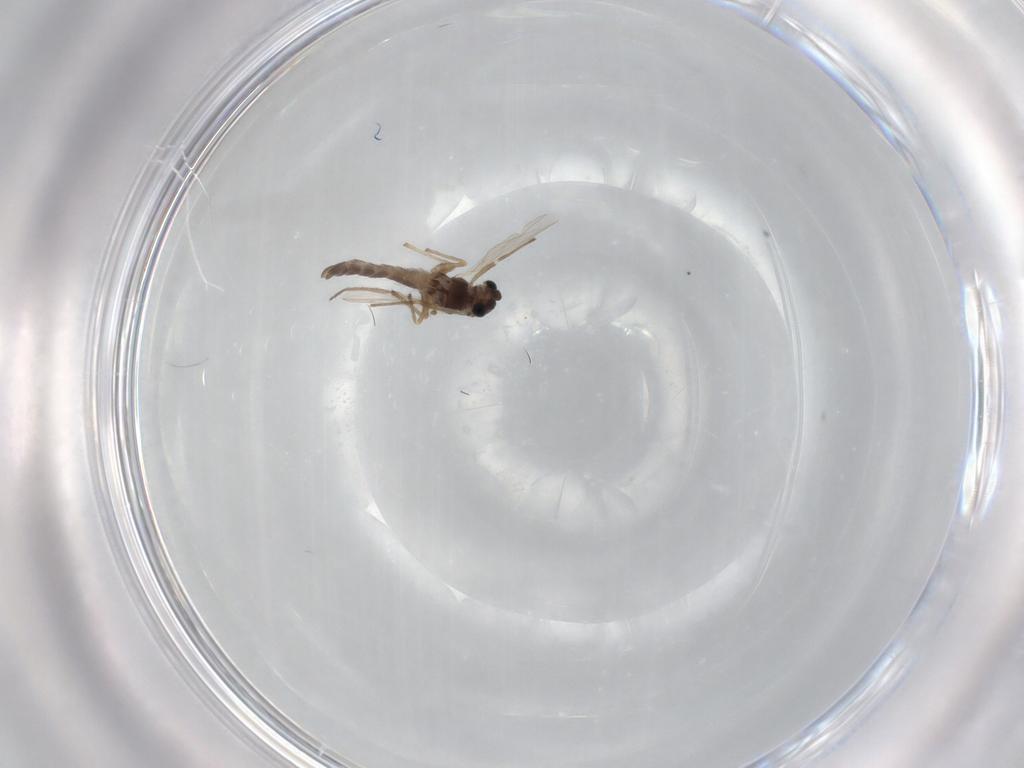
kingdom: Animalia
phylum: Arthropoda
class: Insecta
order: Diptera
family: Chironomidae
